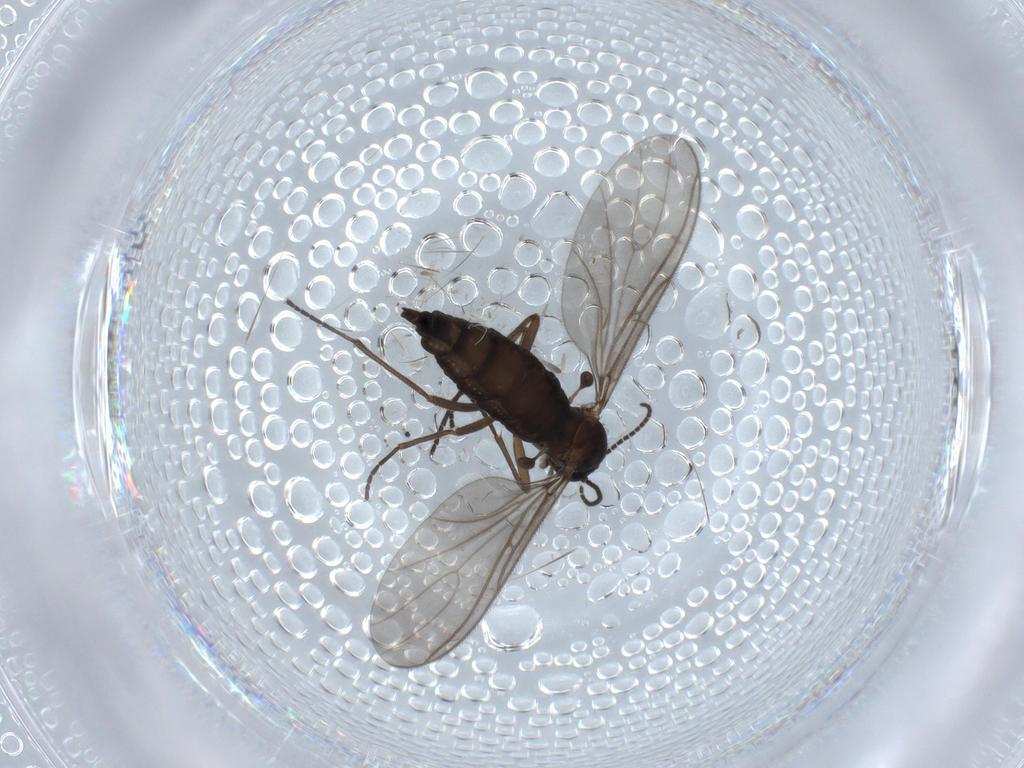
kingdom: Animalia
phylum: Arthropoda
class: Insecta
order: Diptera
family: Sciaridae
